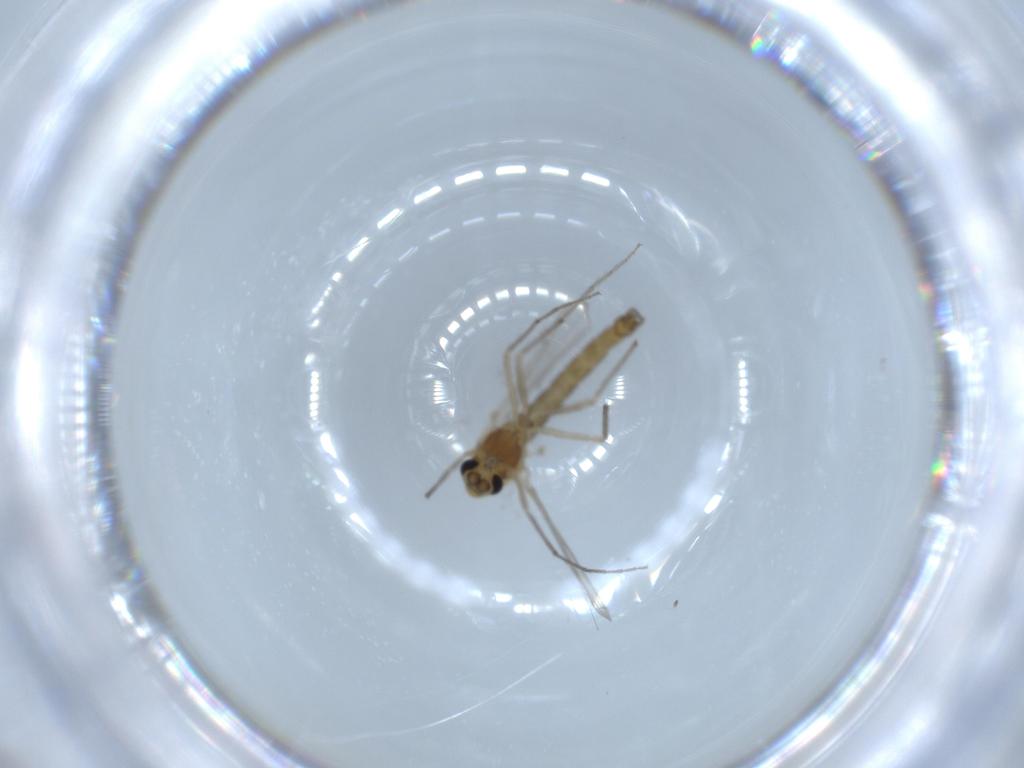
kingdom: Animalia
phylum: Arthropoda
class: Insecta
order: Diptera
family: Chironomidae
